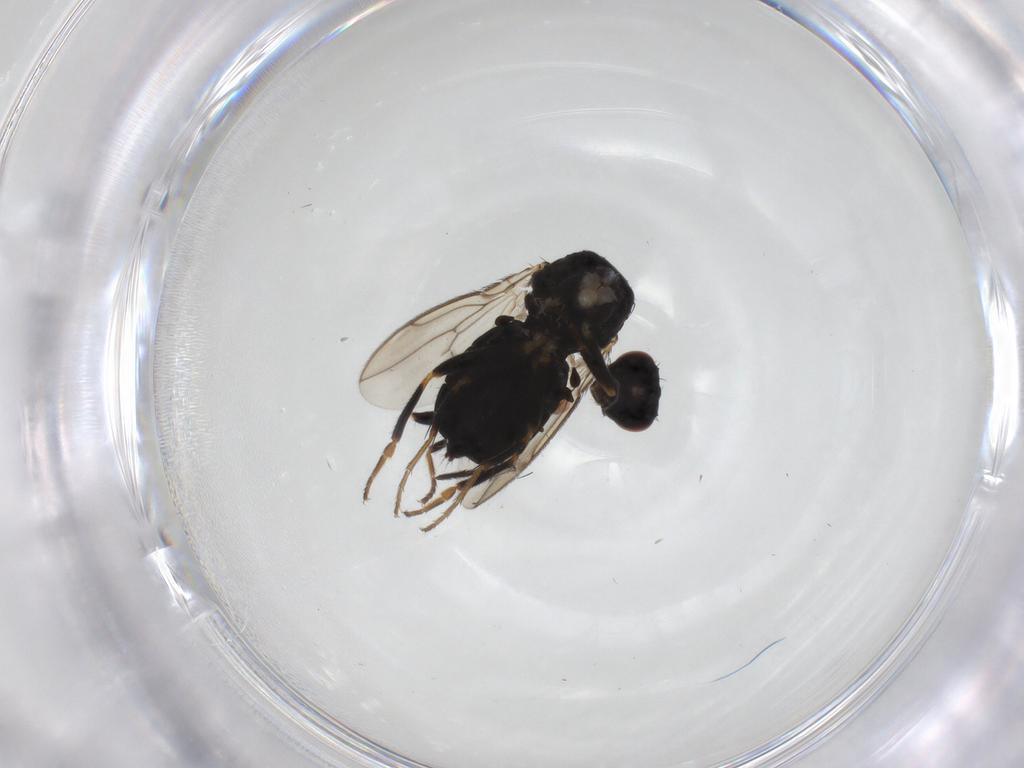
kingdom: Animalia
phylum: Arthropoda
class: Insecta
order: Diptera
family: Sphaeroceridae
